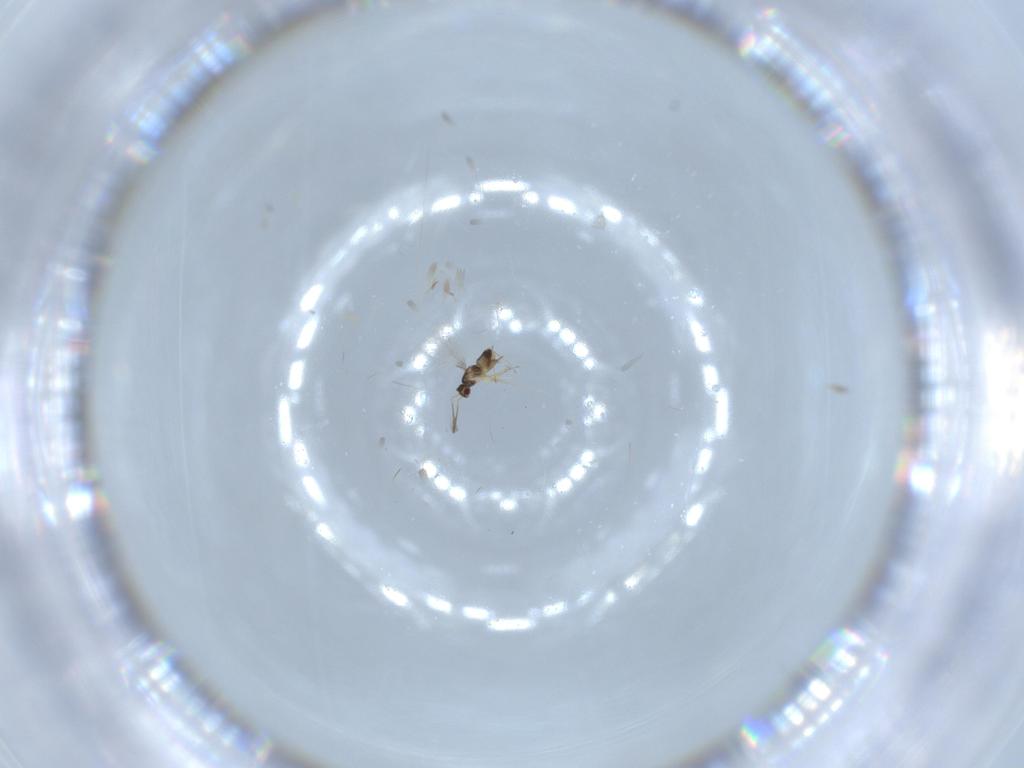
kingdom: Animalia
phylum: Arthropoda
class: Insecta
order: Hymenoptera
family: Mymaridae
